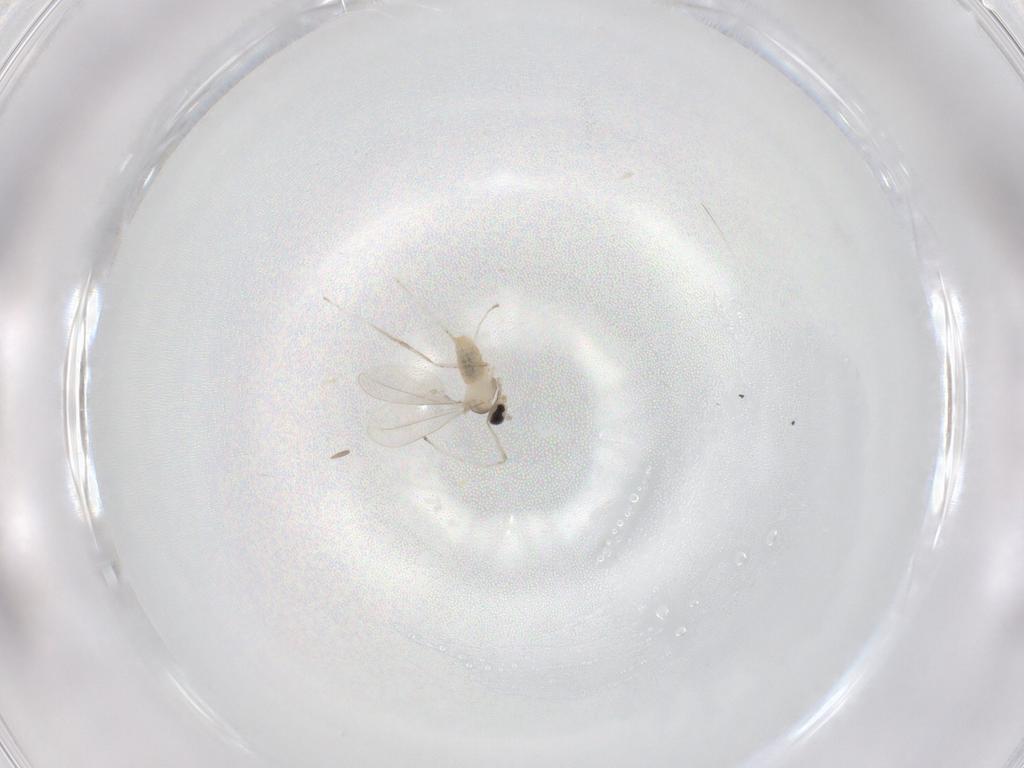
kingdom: Animalia
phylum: Arthropoda
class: Insecta
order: Diptera
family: Cecidomyiidae
